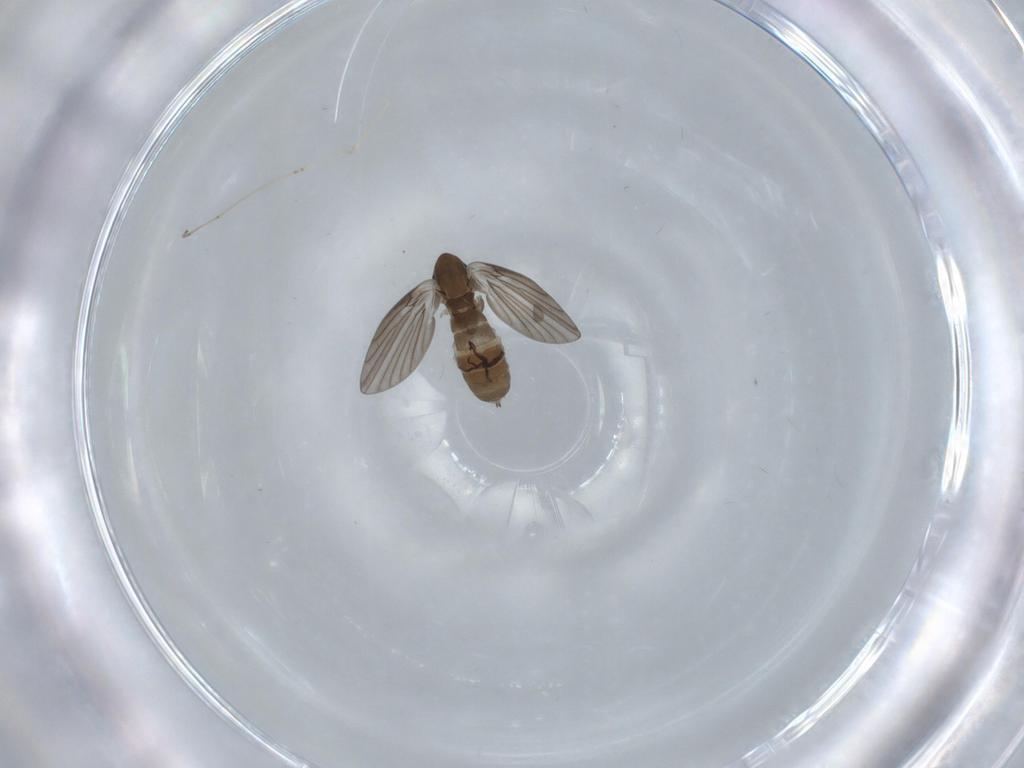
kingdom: Animalia
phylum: Arthropoda
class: Insecta
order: Diptera
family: Psychodidae
